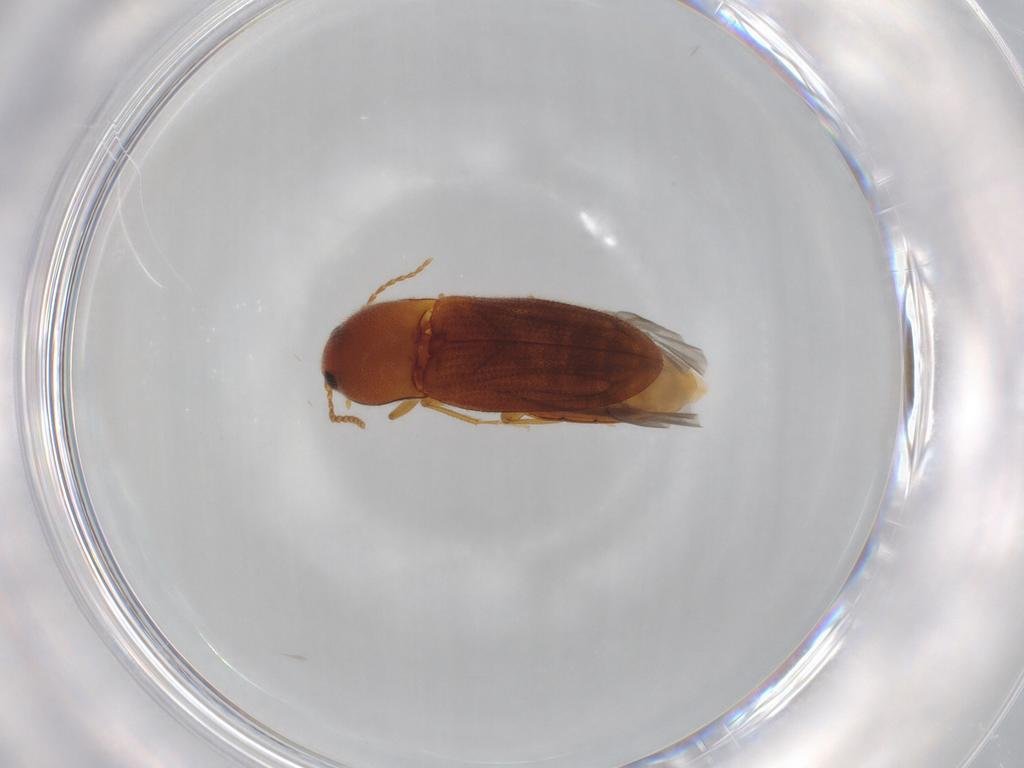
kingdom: Animalia
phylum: Arthropoda
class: Insecta
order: Coleoptera
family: Elateridae
